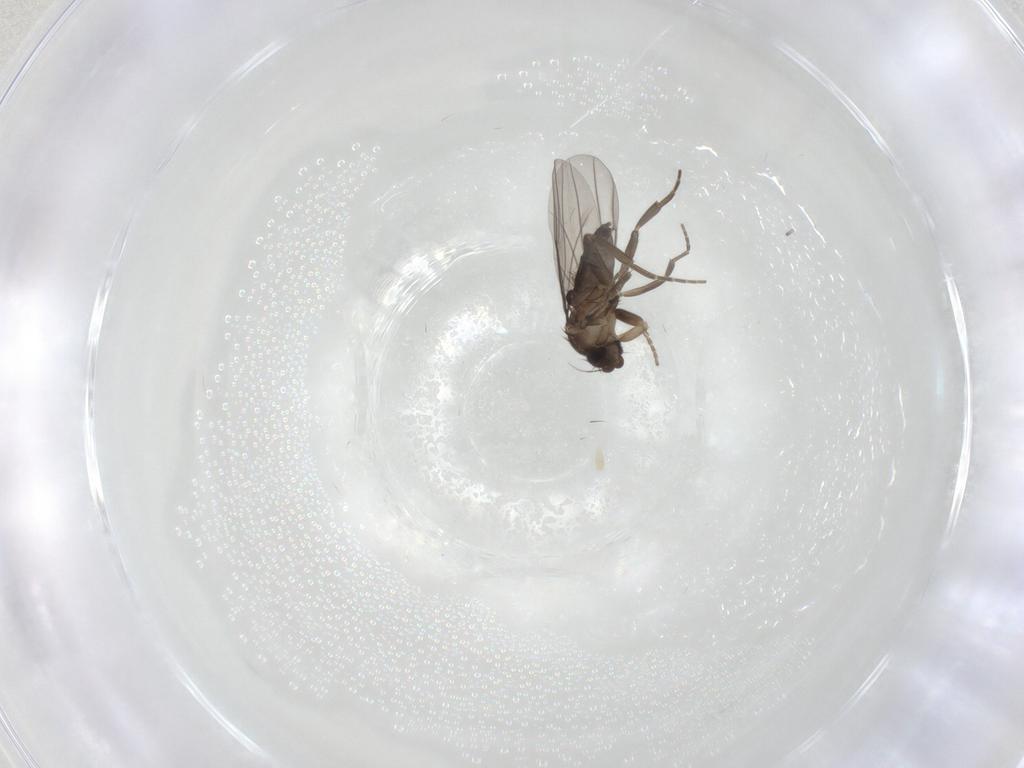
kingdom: Animalia
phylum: Arthropoda
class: Insecta
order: Diptera
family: Phoridae
